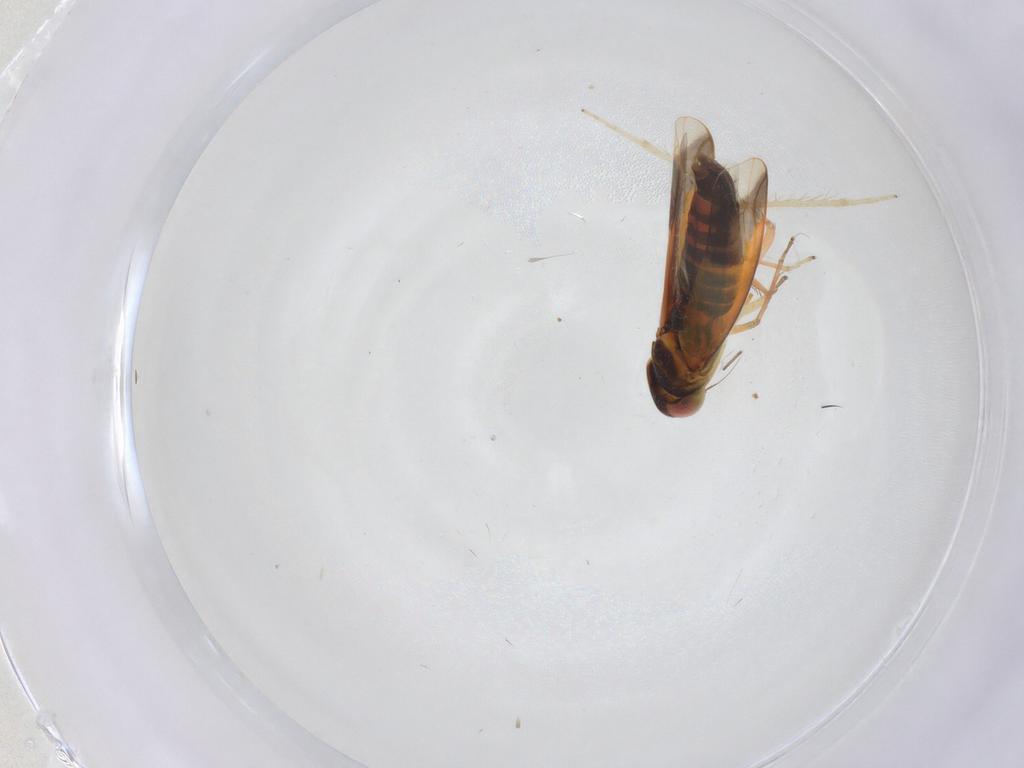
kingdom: Animalia
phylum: Arthropoda
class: Insecta
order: Hemiptera
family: Cicadellidae
